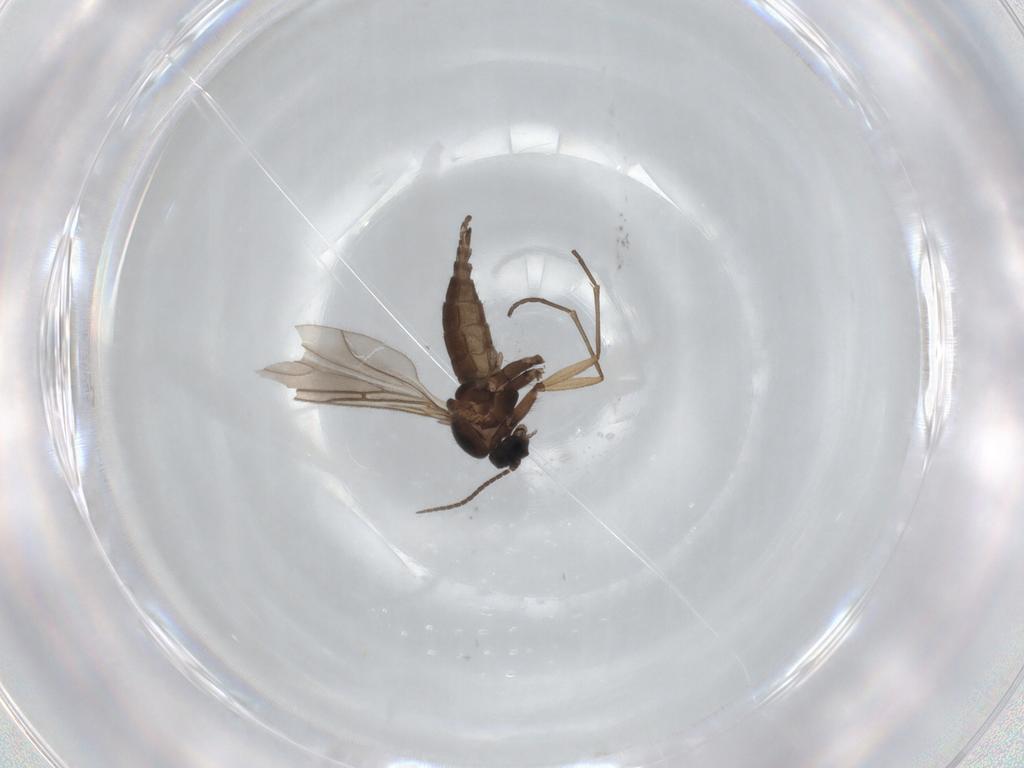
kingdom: Animalia
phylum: Arthropoda
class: Insecta
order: Diptera
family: Sciaridae
